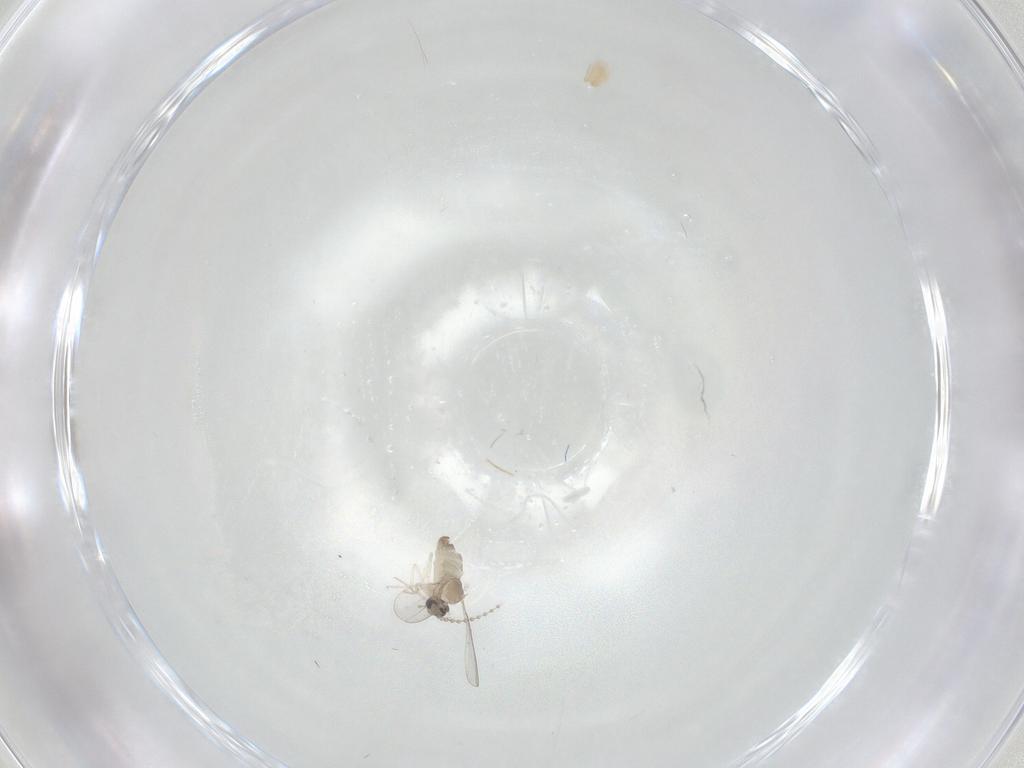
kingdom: Animalia
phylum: Arthropoda
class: Insecta
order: Diptera
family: Cecidomyiidae
